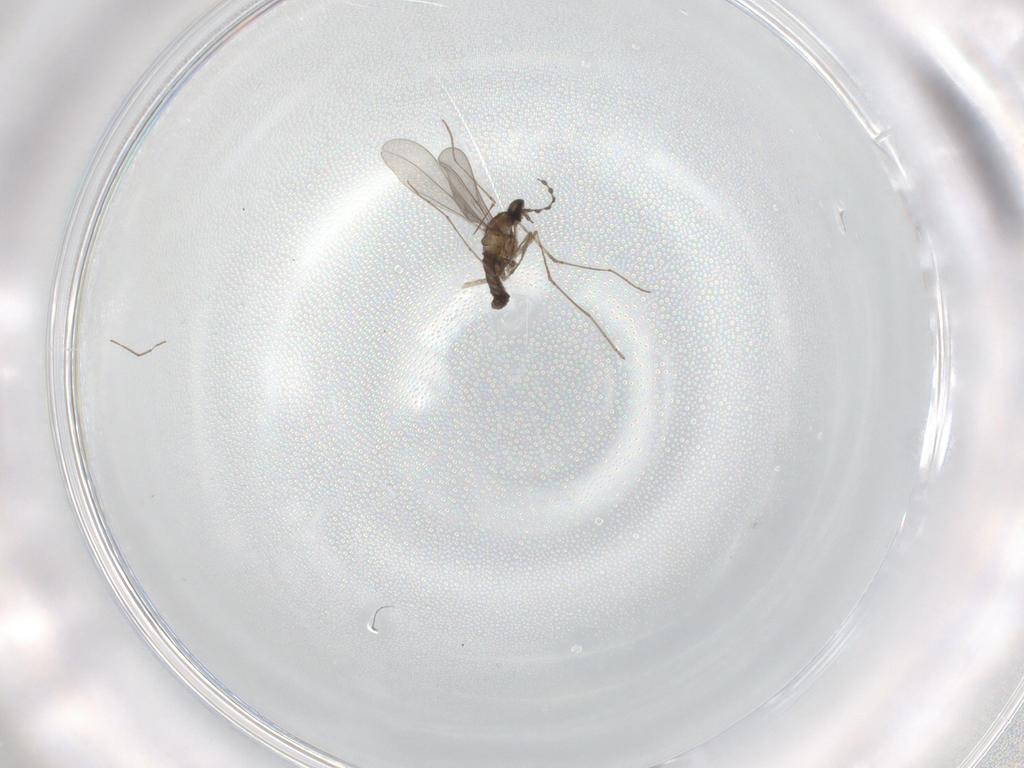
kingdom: Animalia
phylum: Arthropoda
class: Insecta
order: Diptera
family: Cecidomyiidae
